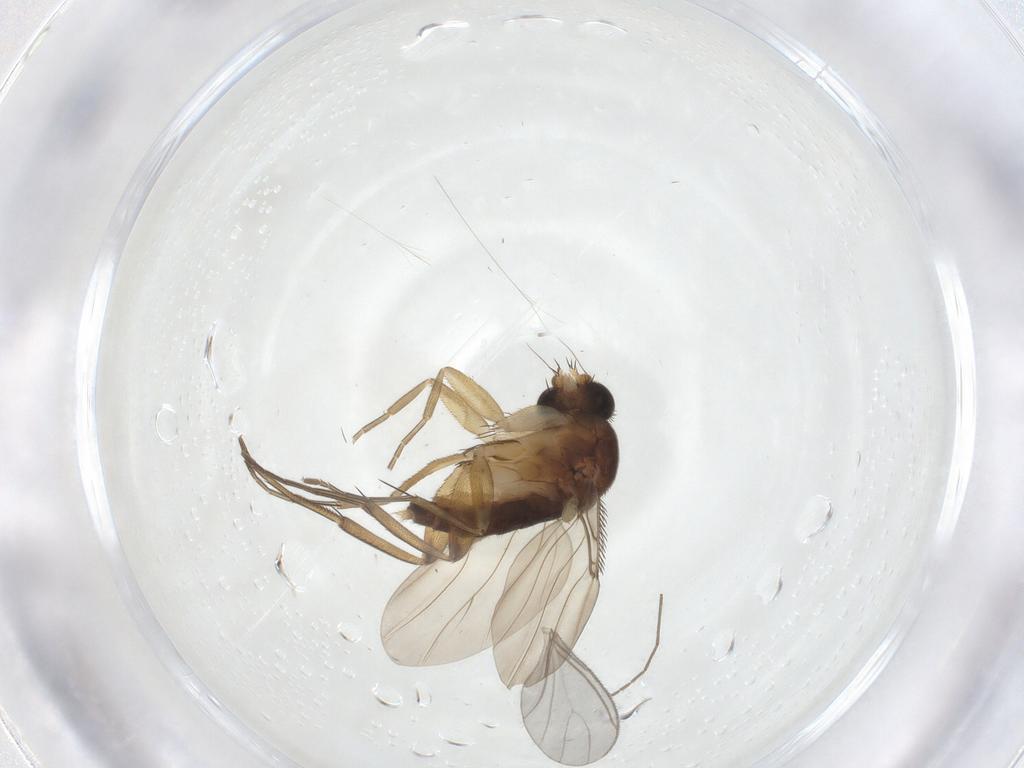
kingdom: Animalia
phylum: Arthropoda
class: Insecta
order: Diptera
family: Phoridae
